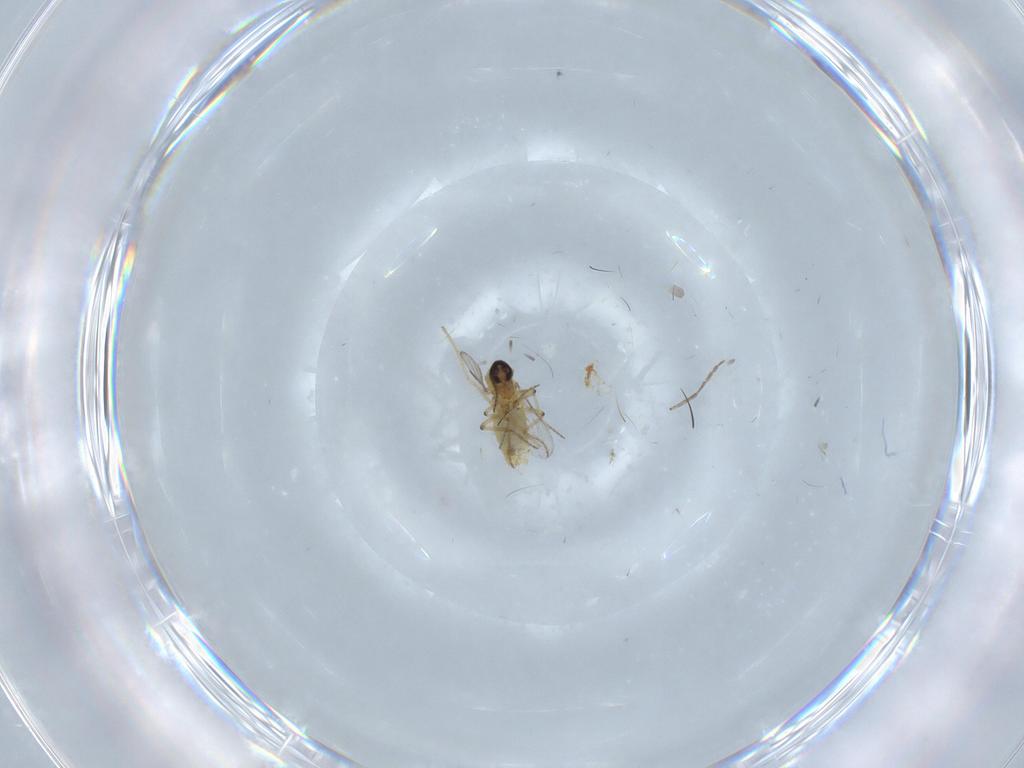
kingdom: Animalia
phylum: Arthropoda
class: Insecta
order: Diptera
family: Ceratopogonidae
